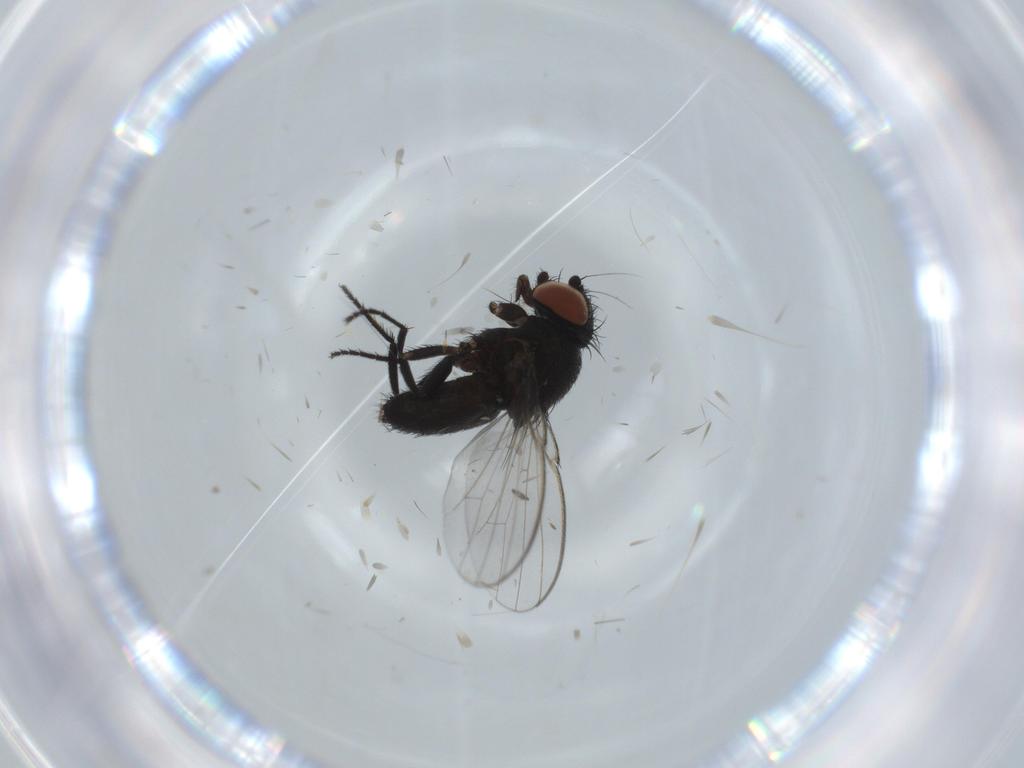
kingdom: Animalia
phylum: Arthropoda
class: Insecta
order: Diptera
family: Milichiidae
